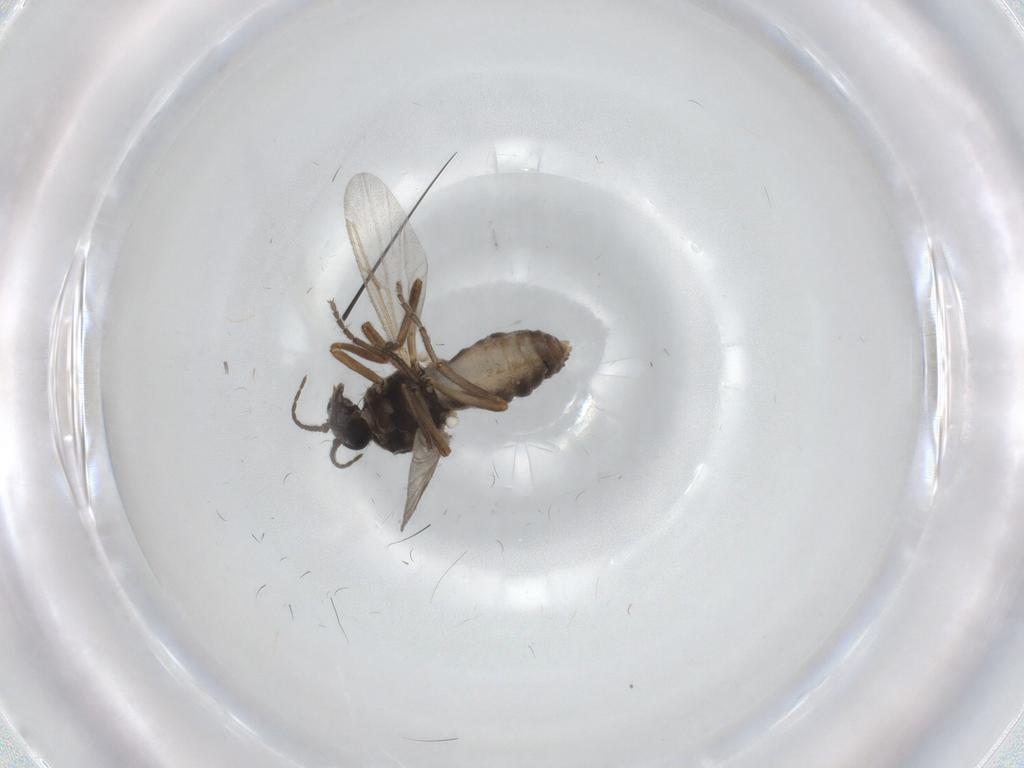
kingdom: Animalia
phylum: Arthropoda
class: Insecta
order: Diptera
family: Ceratopogonidae
